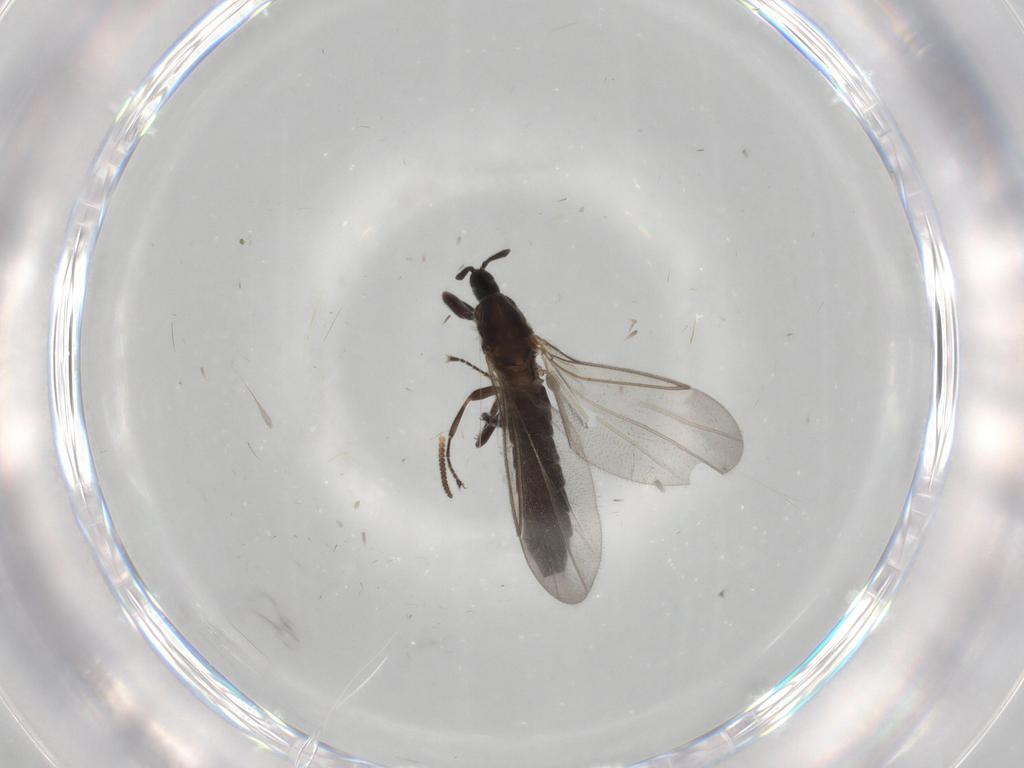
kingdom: Animalia
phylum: Arthropoda
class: Insecta
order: Diptera
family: Scatopsidae
